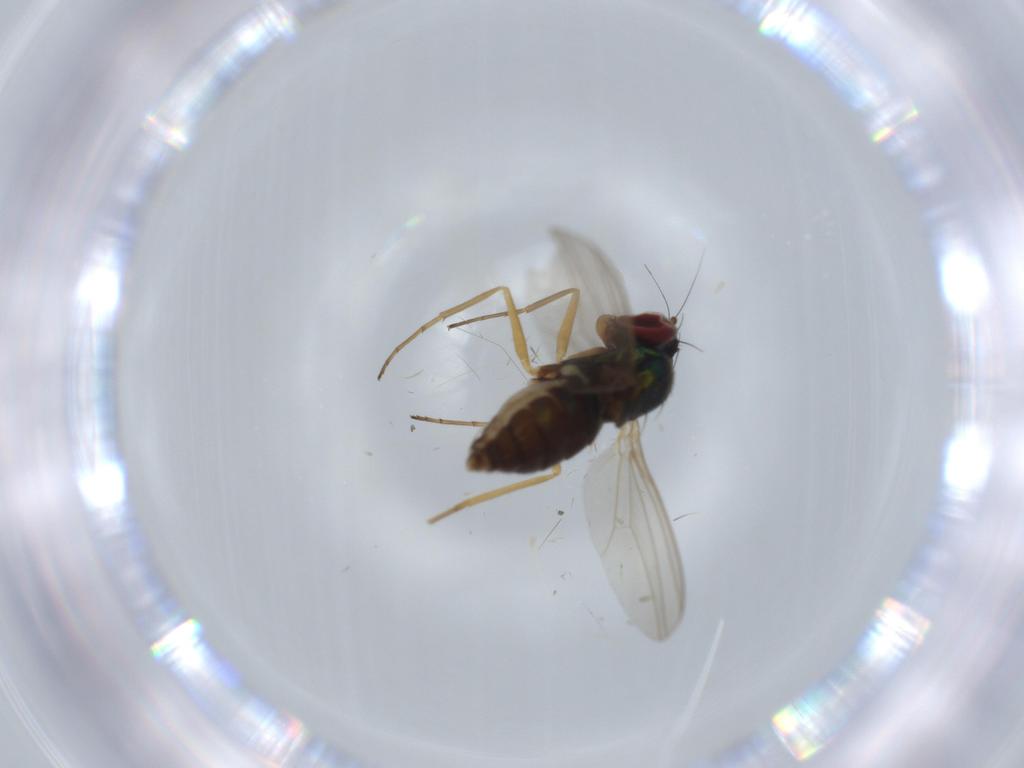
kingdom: Animalia
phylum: Arthropoda
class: Insecta
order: Diptera
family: Dolichopodidae
